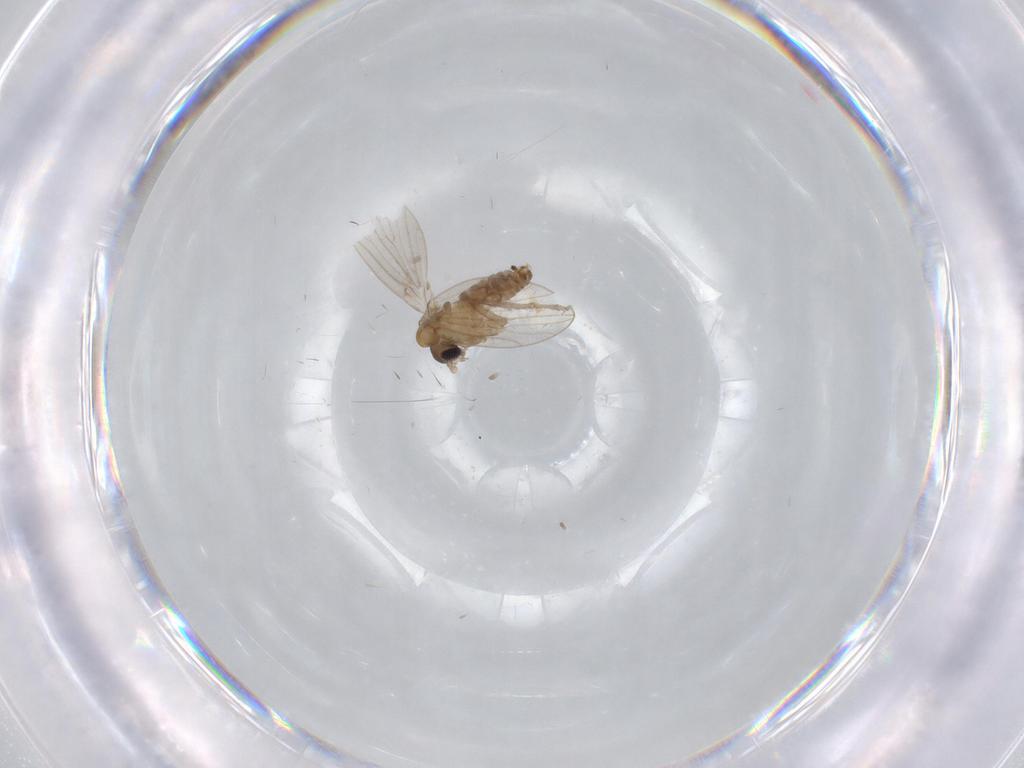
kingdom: Animalia
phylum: Arthropoda
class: Insecta
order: Diptera
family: Psychodidae
